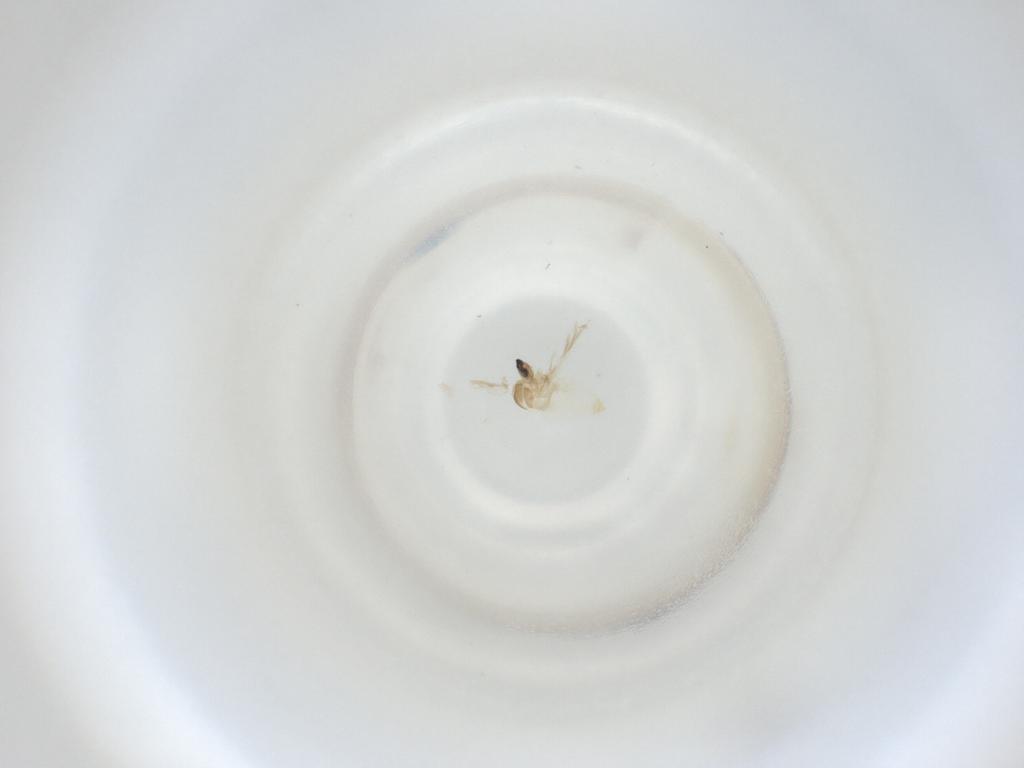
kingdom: Animalia
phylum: Arthropoda
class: Insecta
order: Diptera
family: Cecidomyiidae
